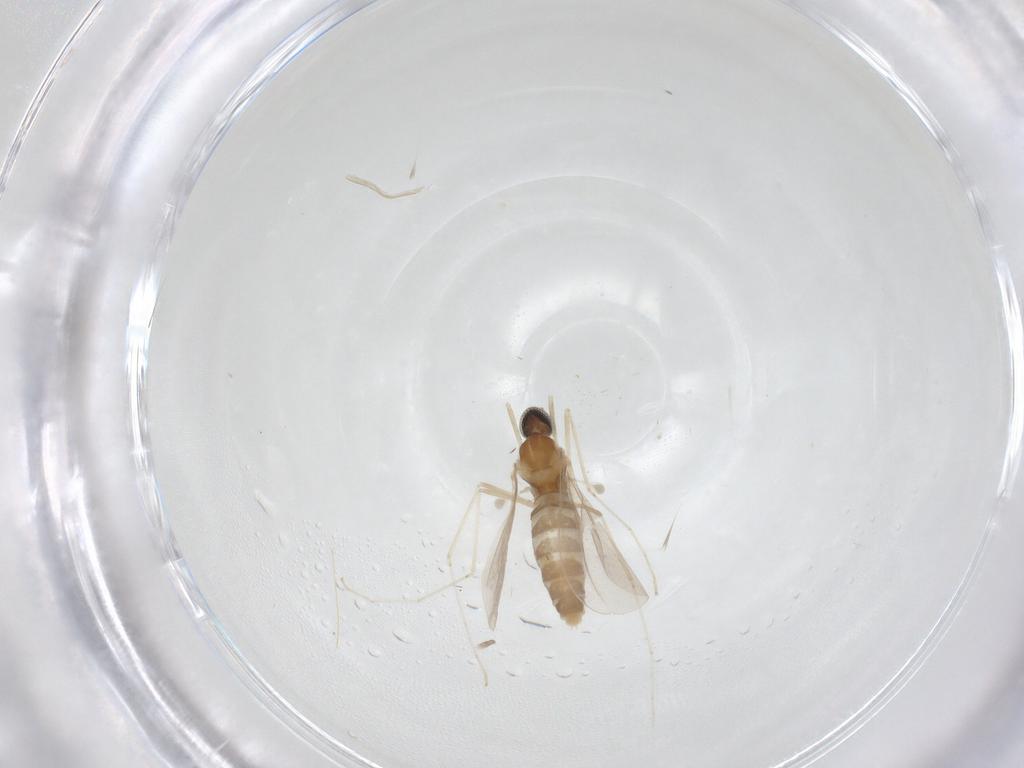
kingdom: Animalia
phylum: Arthropoda
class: Insecta
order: Diptera
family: Cecidomyiidae
